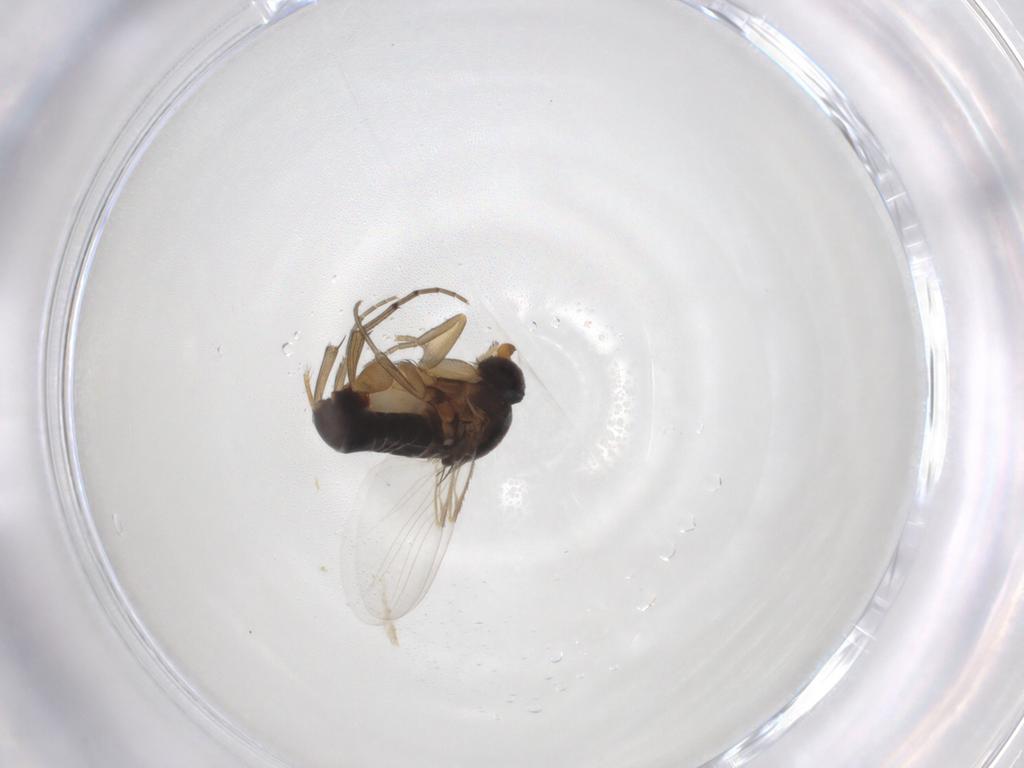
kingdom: Animalia
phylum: Arthropoda
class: Insecta
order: Diptera
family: Phoridae
